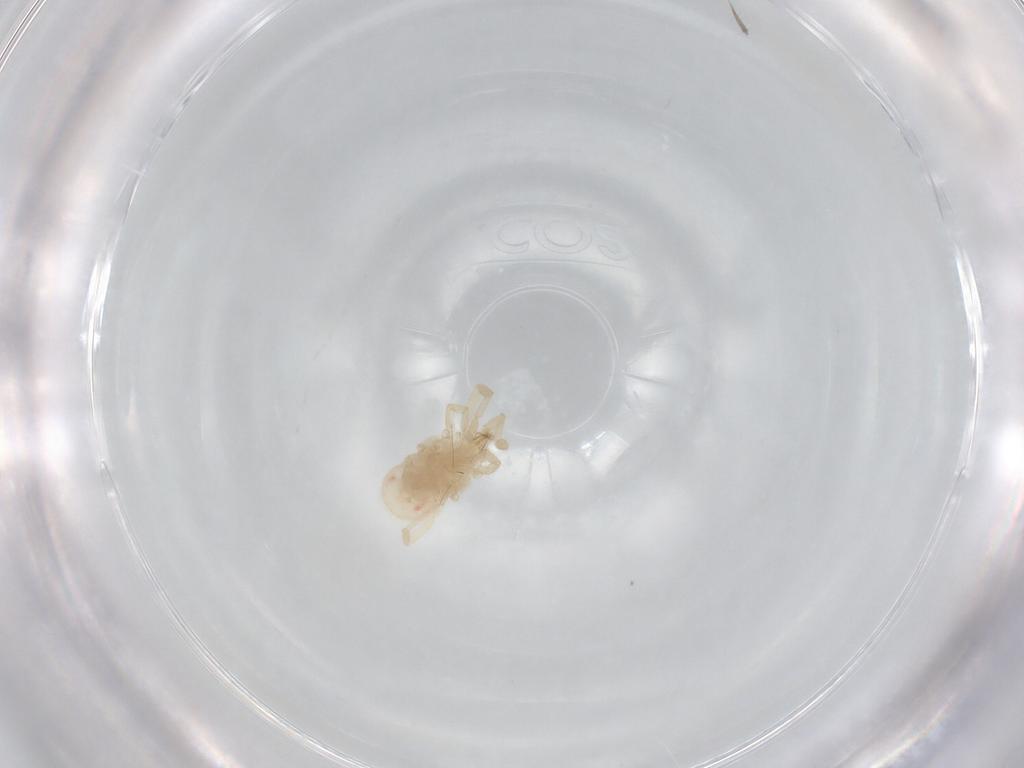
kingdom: Animalia
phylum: Arthropoda
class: Arachnida
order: Trombidiformes
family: Erythraeidae
